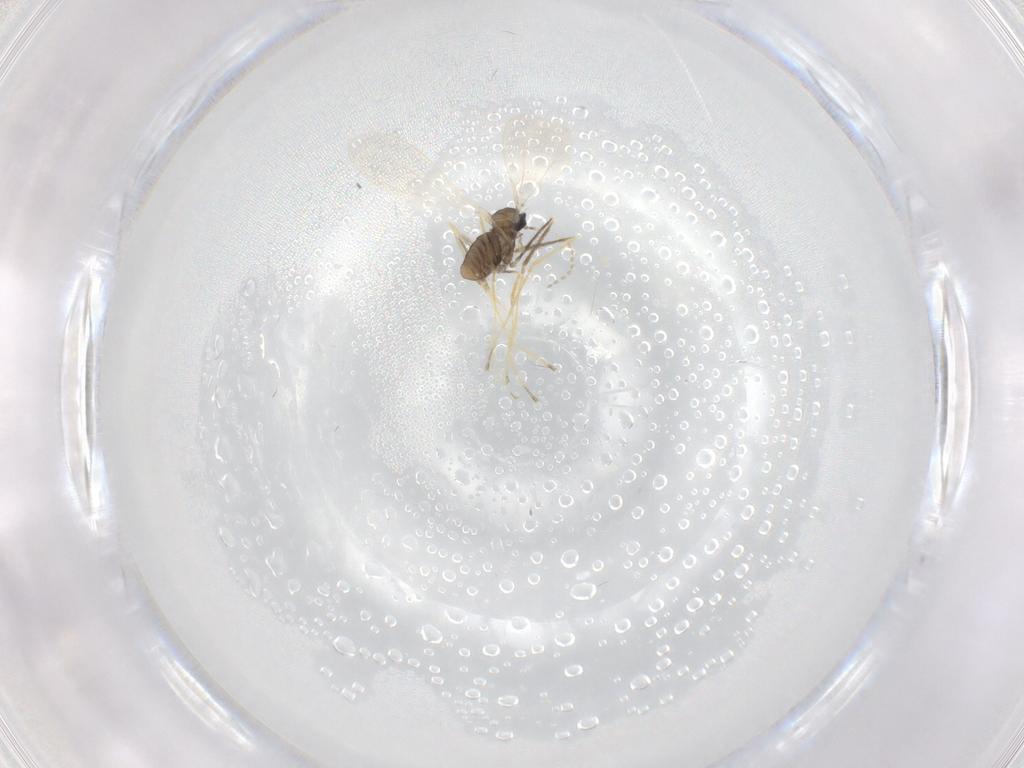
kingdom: Animalia
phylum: Arthropoda
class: Insecta
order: Diptera
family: Cecidomyiidae
